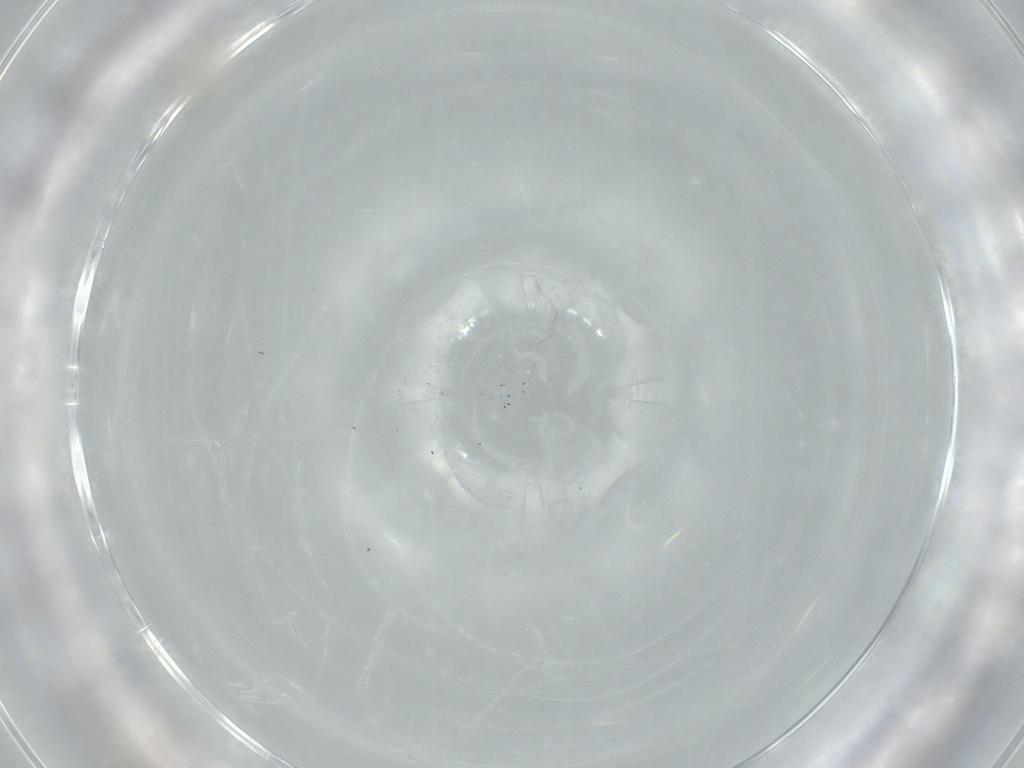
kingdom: Animalia
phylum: Arthropoda
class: Insecta
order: Diptera
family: Cecidomyiidae
